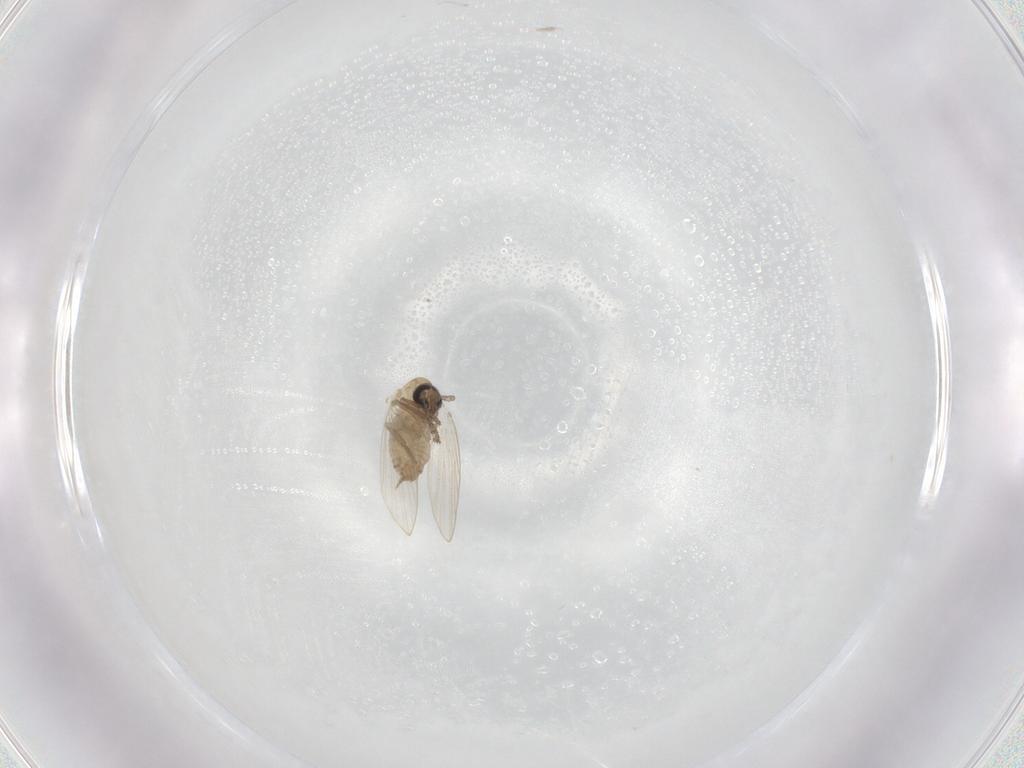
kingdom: Animalia
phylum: Arthropoda
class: Insecta
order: Diptera
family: Psychodidae
